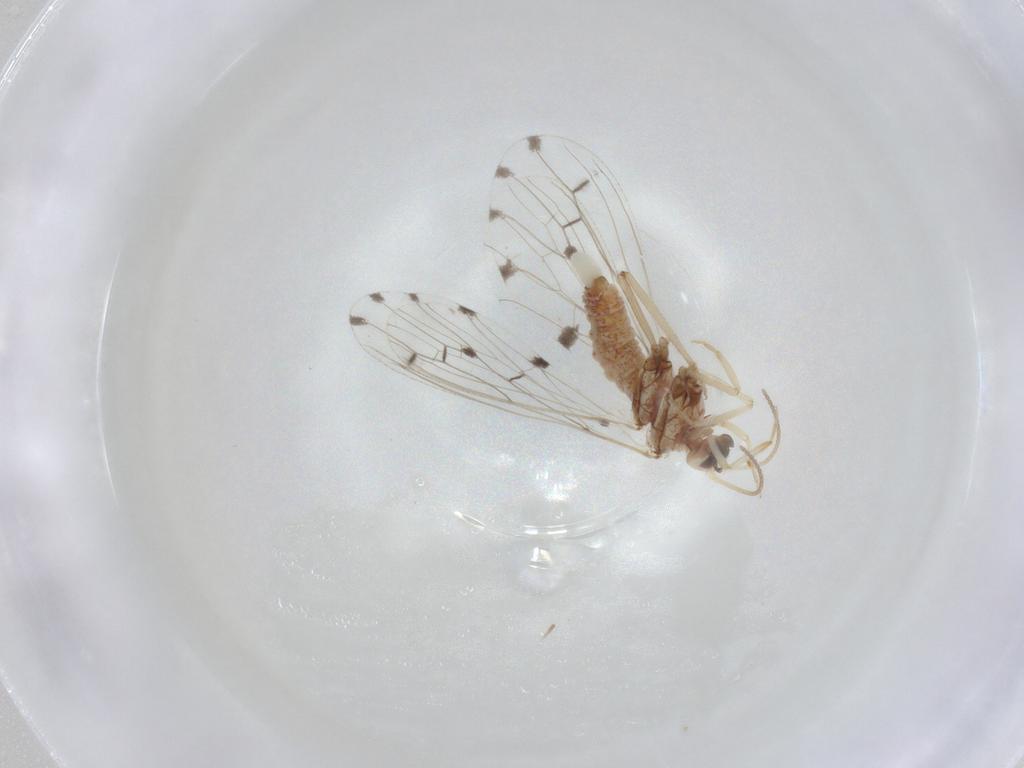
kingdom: Animalia
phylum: Arthropoda
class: Insecta
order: Neuroptera
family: Coniopterygidae
